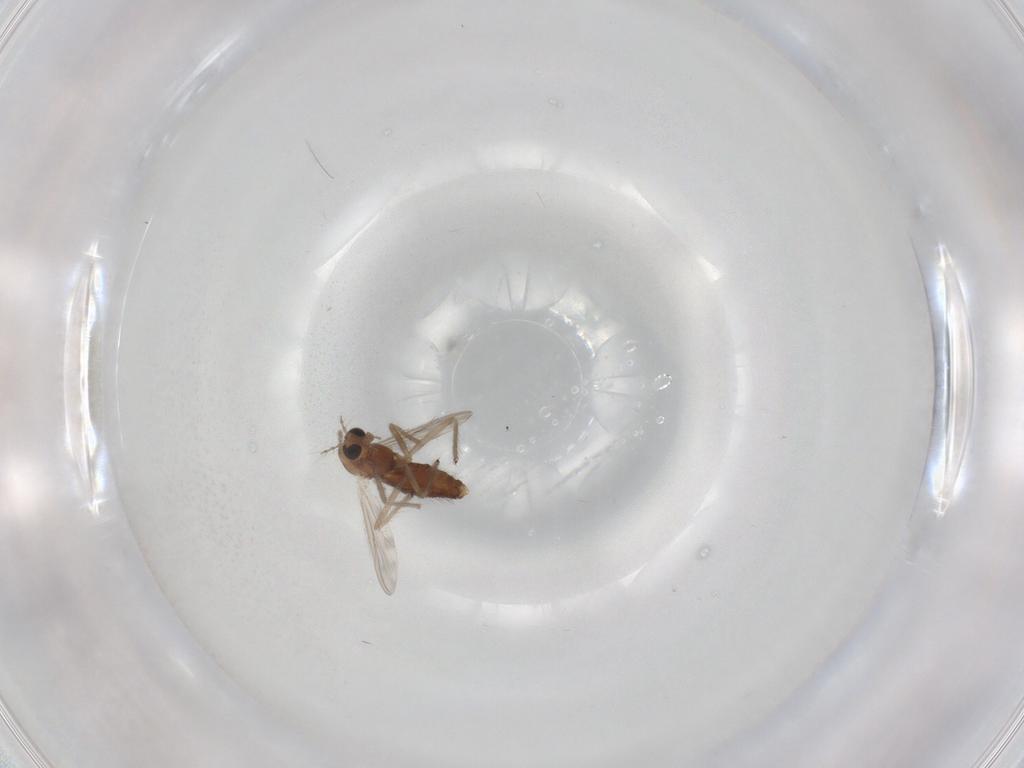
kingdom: Animalia
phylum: Arthropoda
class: Insecta
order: Diptera
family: Chironomidae
